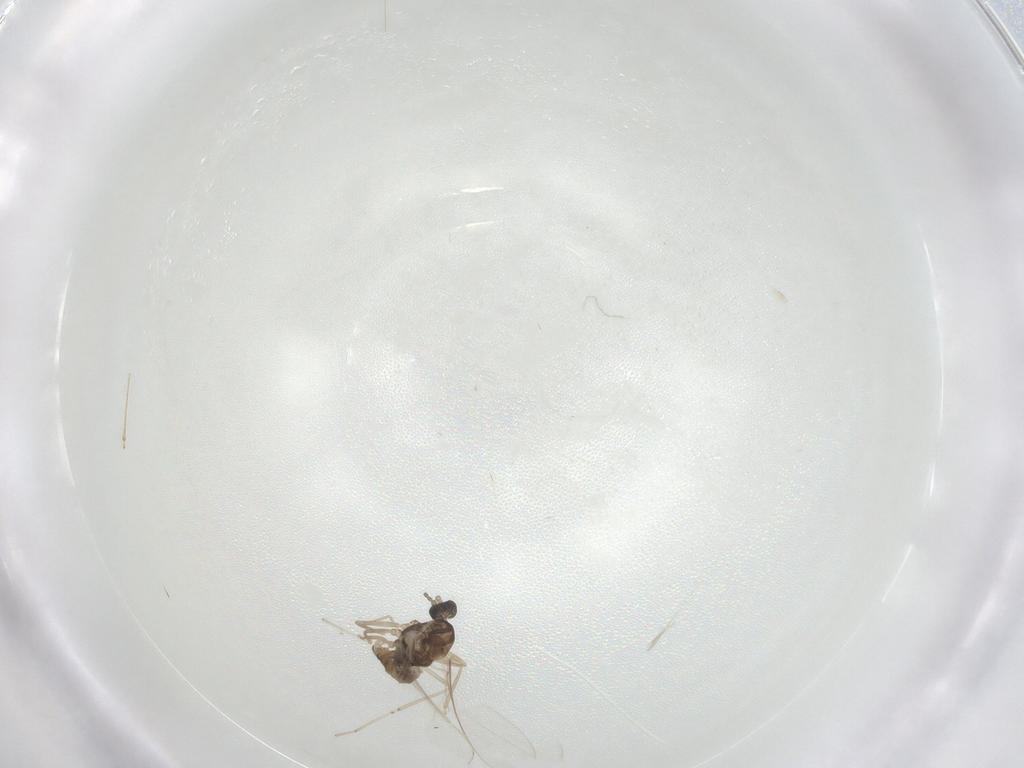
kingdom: Animalia
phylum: Arthropoda
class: Insecta
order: Diptera
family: Cecidomyiidae
